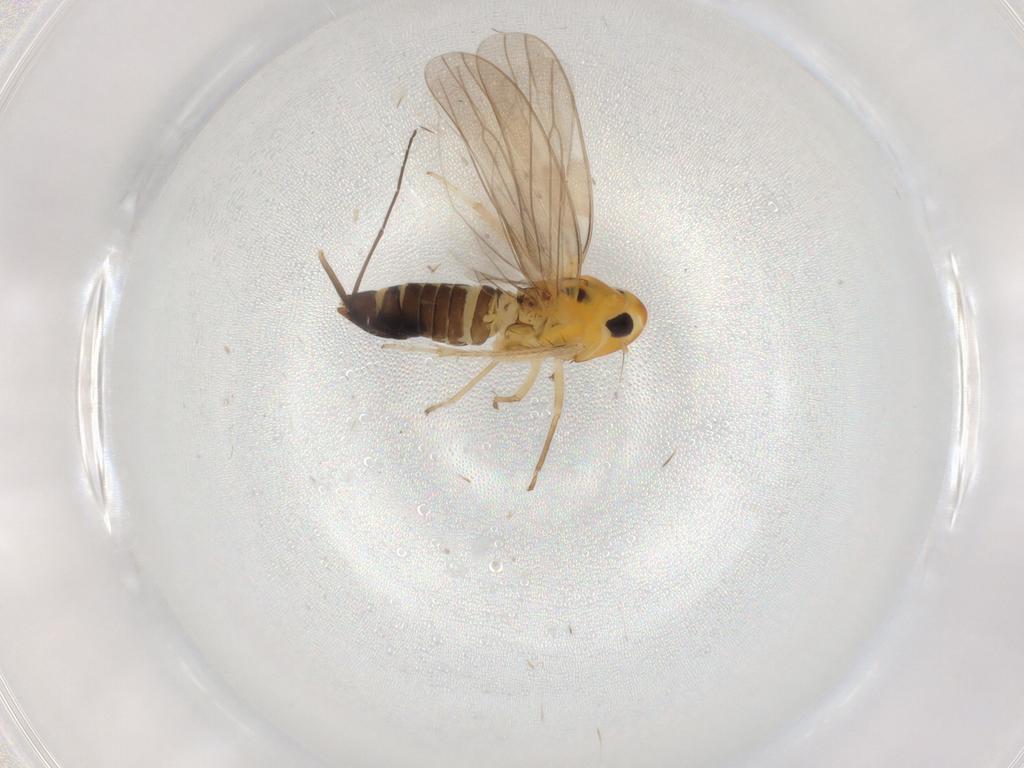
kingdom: Animalia
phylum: Arthropoda
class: Insecta
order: Hemiptera
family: Cicadellidae
